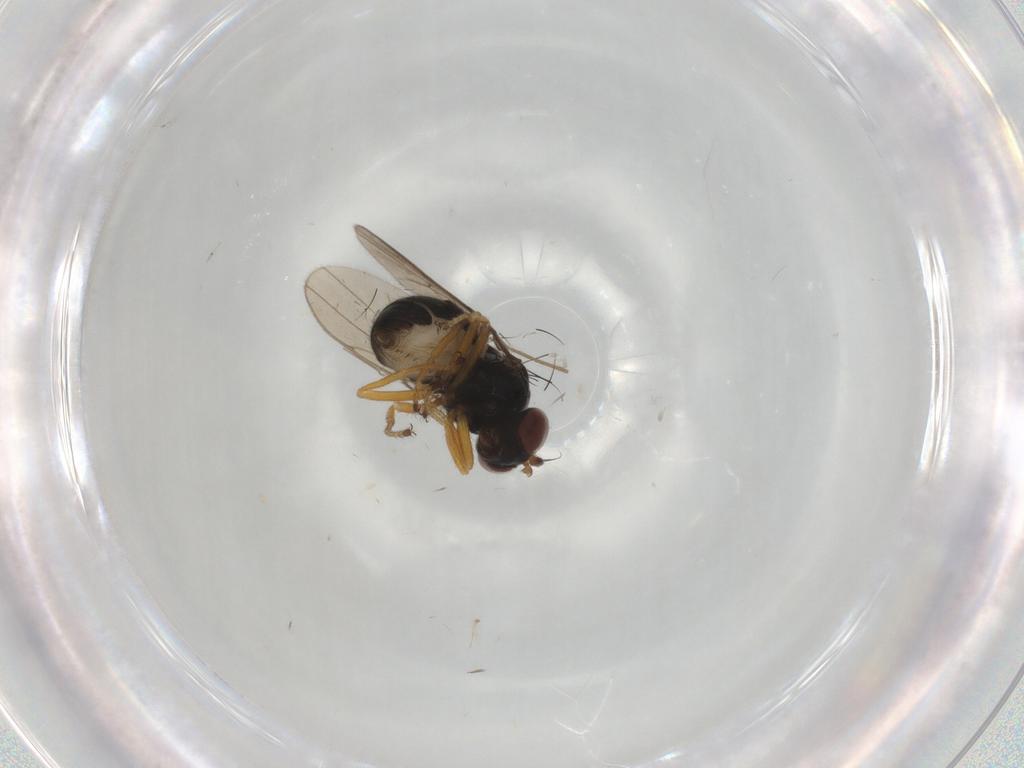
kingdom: Animalia
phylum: Arthropoda
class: Insecta
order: Diptera
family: Ephydridae
